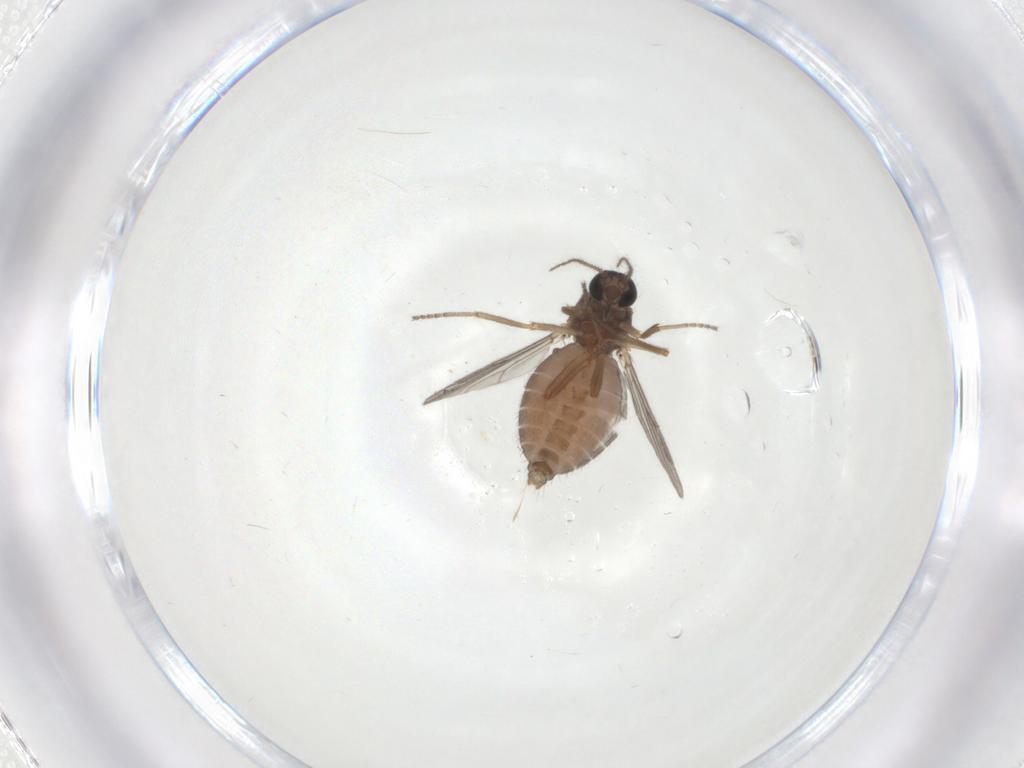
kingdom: Animalia
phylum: Arthropoda
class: Insecta
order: Diptera
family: Ceratopogonidae
